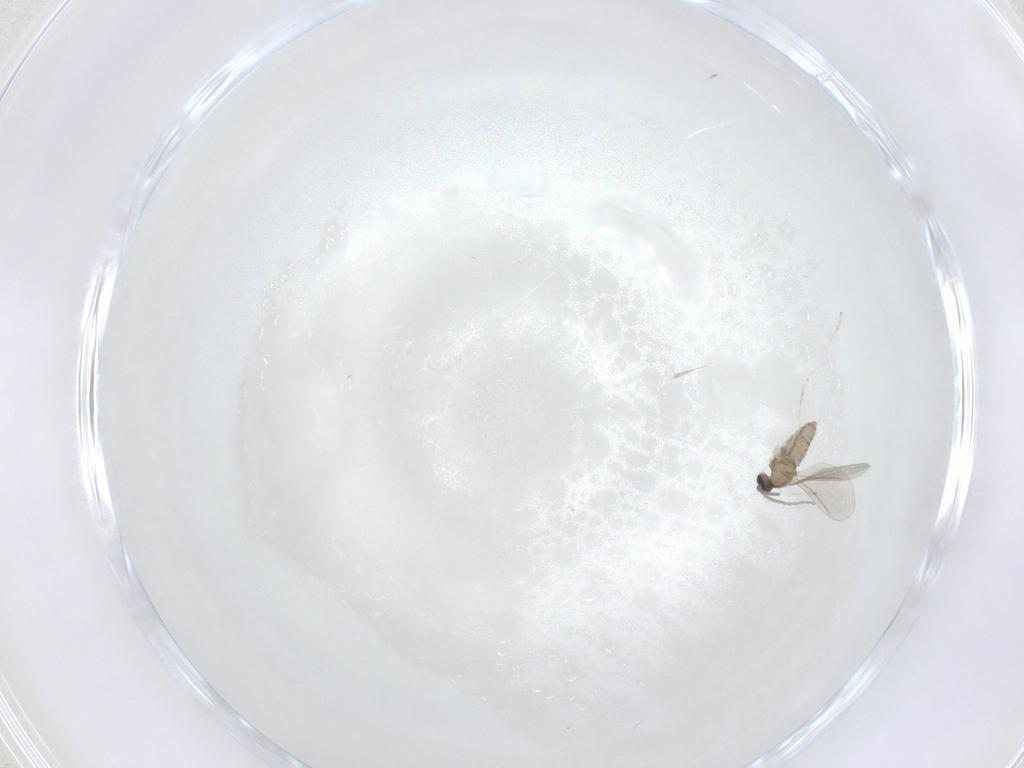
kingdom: Animalia
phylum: Arthropoda
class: Insecta
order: Diptera
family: Cecidomyiidae
